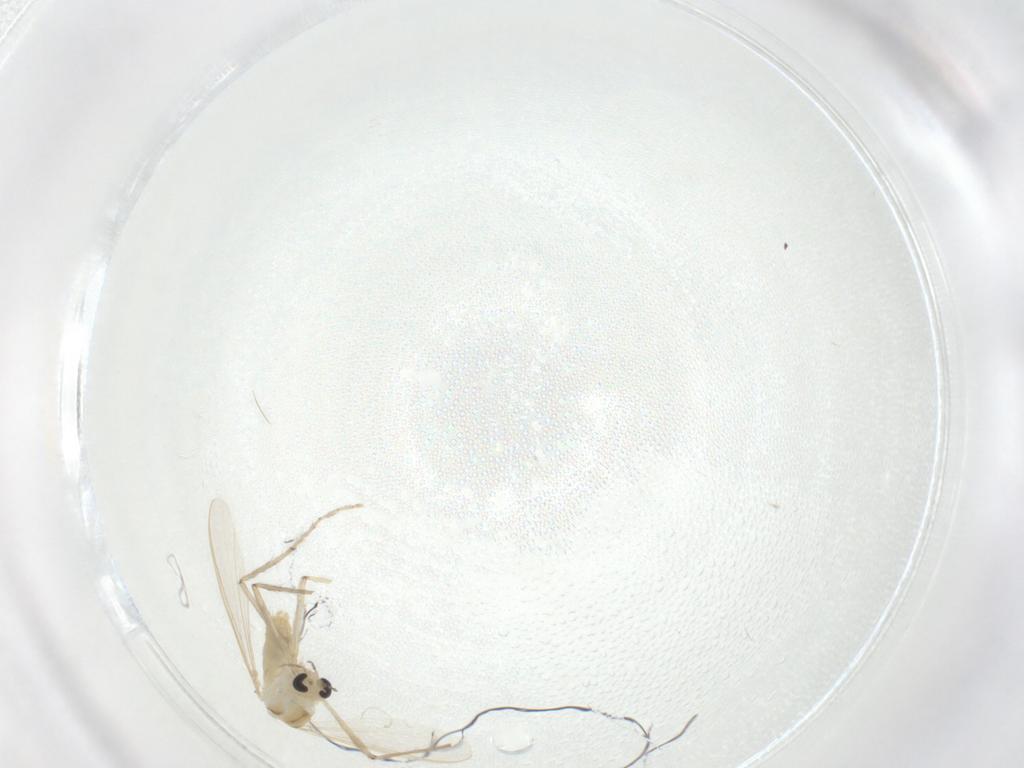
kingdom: Animalia
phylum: Arthropoda
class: Insecta
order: Diptera
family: Chironomidae
